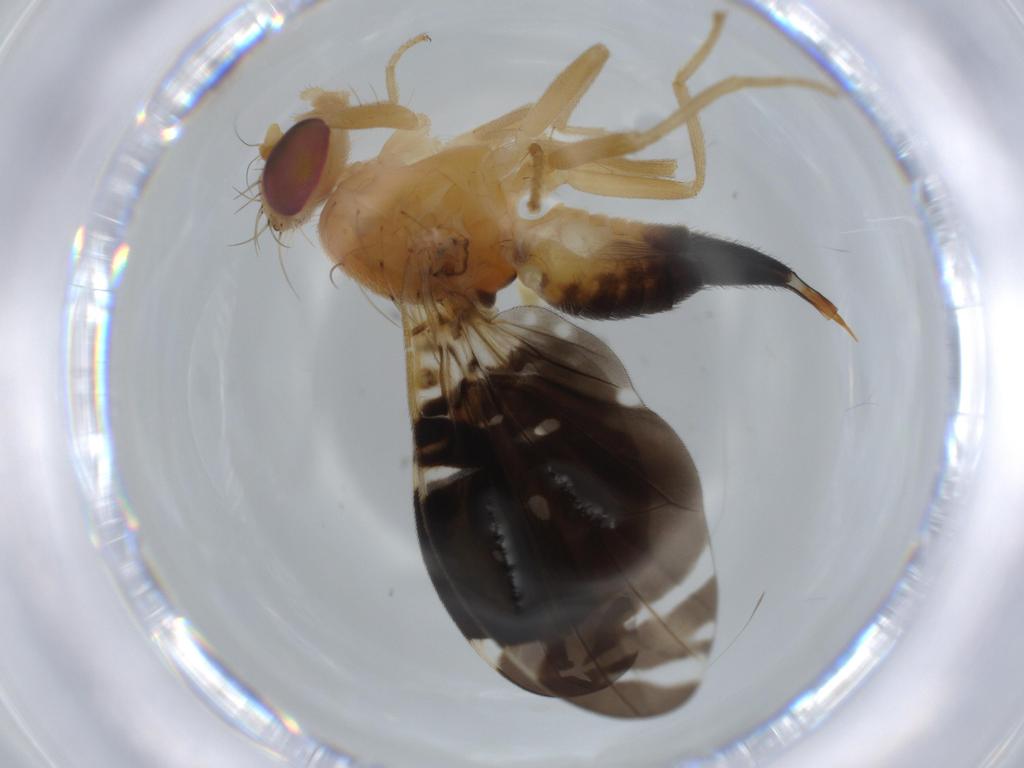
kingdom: Animalia
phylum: Arthropoda
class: Insecta
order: Diptera
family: Tephritidae
